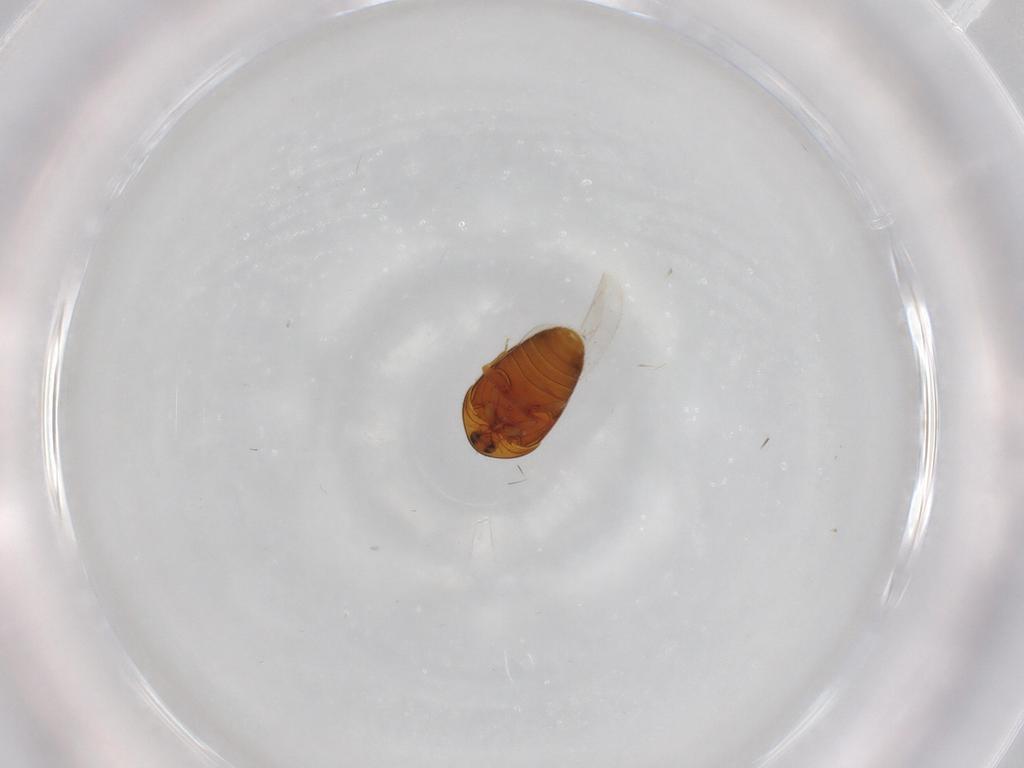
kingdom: Animalia
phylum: Arthropoda
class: Insecta
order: Coleoptera
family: Corylophidae
